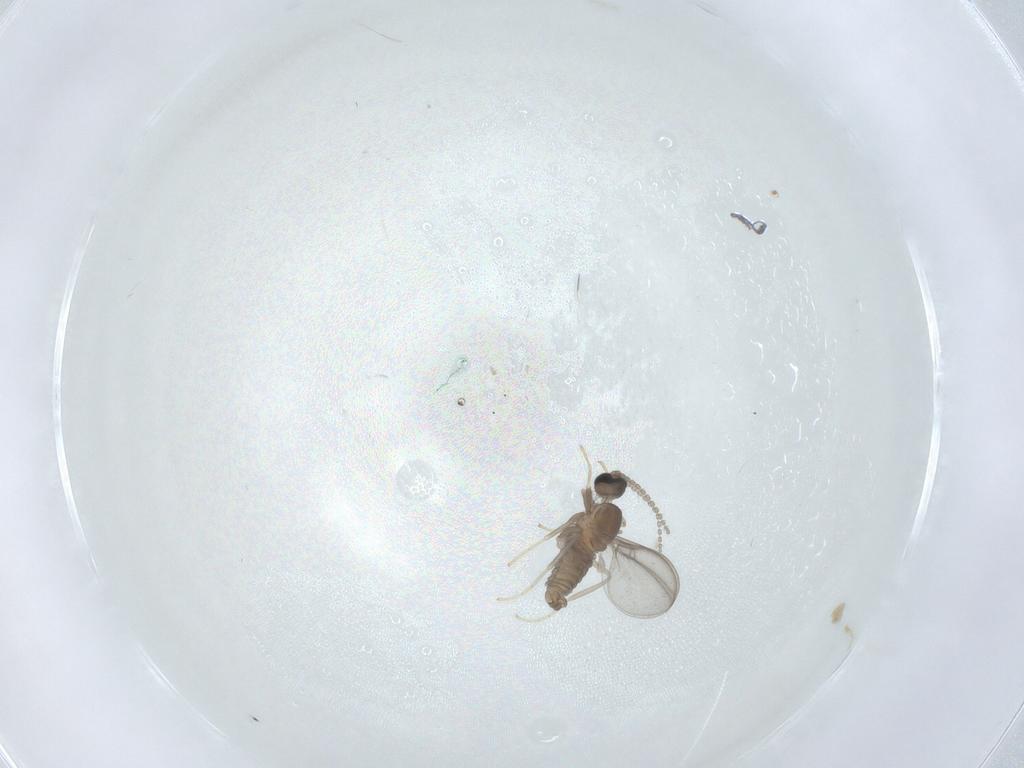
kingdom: Animalia
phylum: Arthropoda
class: Insecta
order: Diptera
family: Cecidomyiidae
